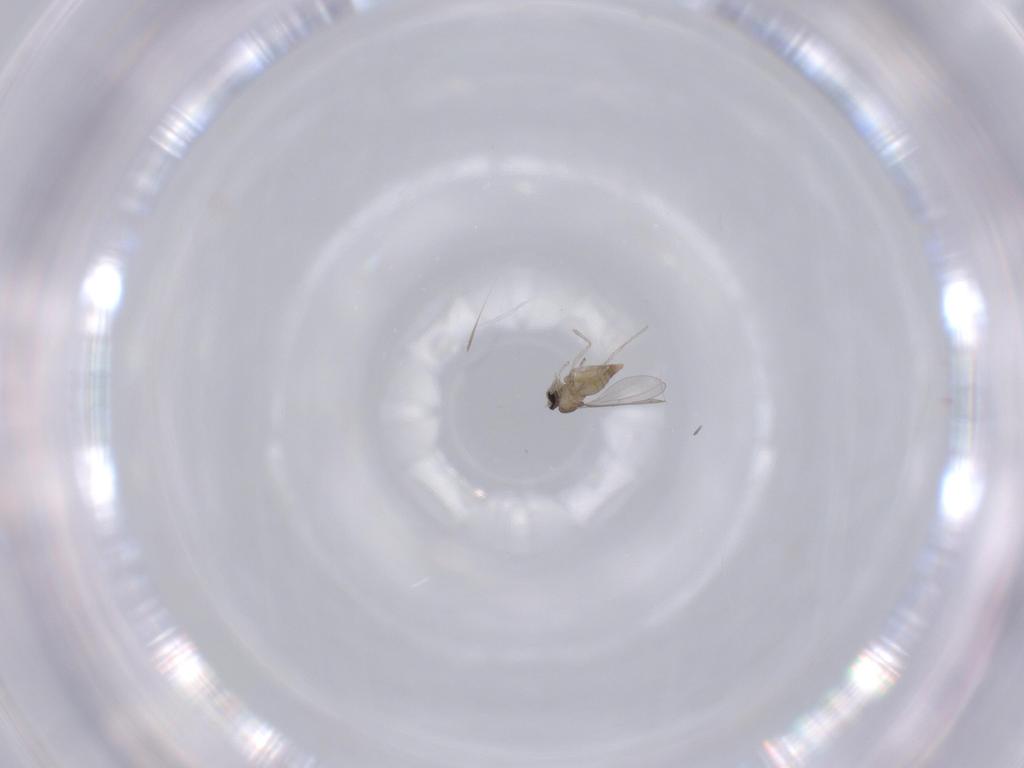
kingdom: Animalia
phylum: Arthropoda
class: Insecta
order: Diptera
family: Cecidomyiidae
